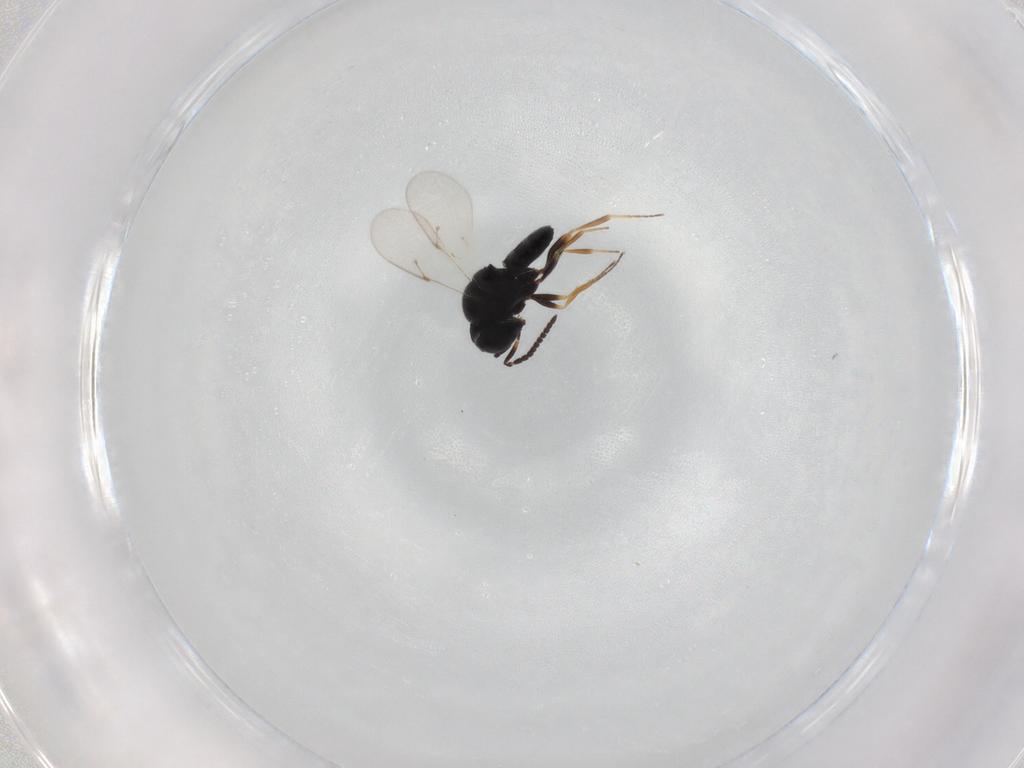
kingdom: Animalia
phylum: Arthropoda
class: Insecta
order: Hymenoptera
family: Scelionidae
